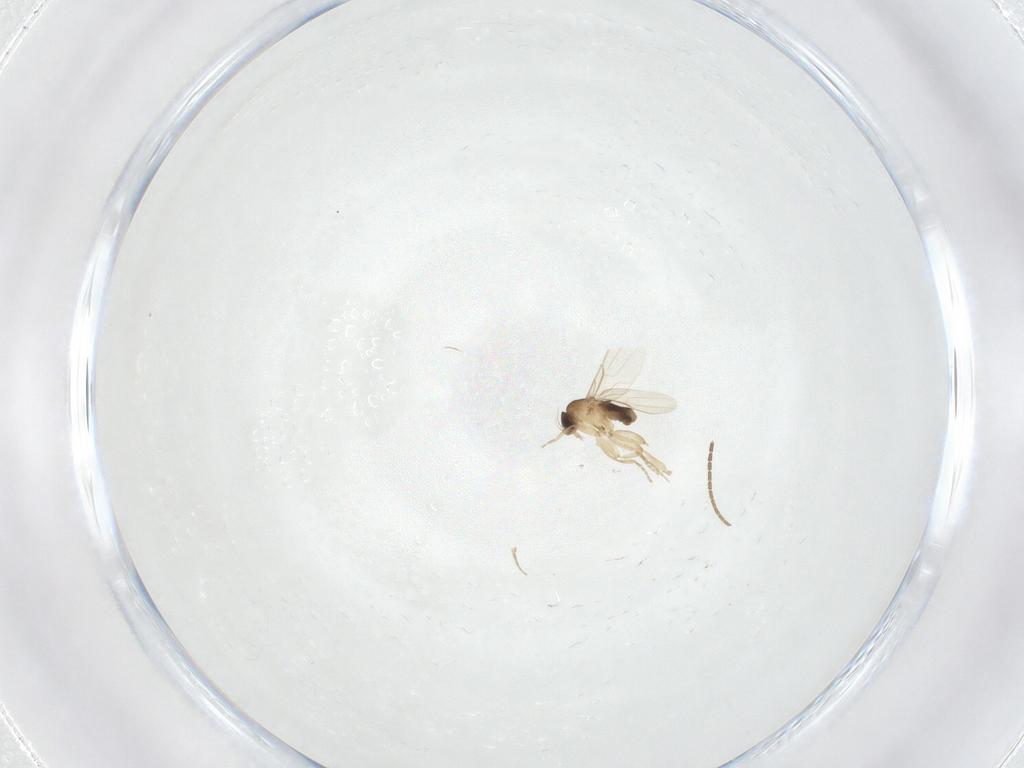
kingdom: Animalia
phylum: Arthropoda
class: Insecta
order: Diptera
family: Phoridae
